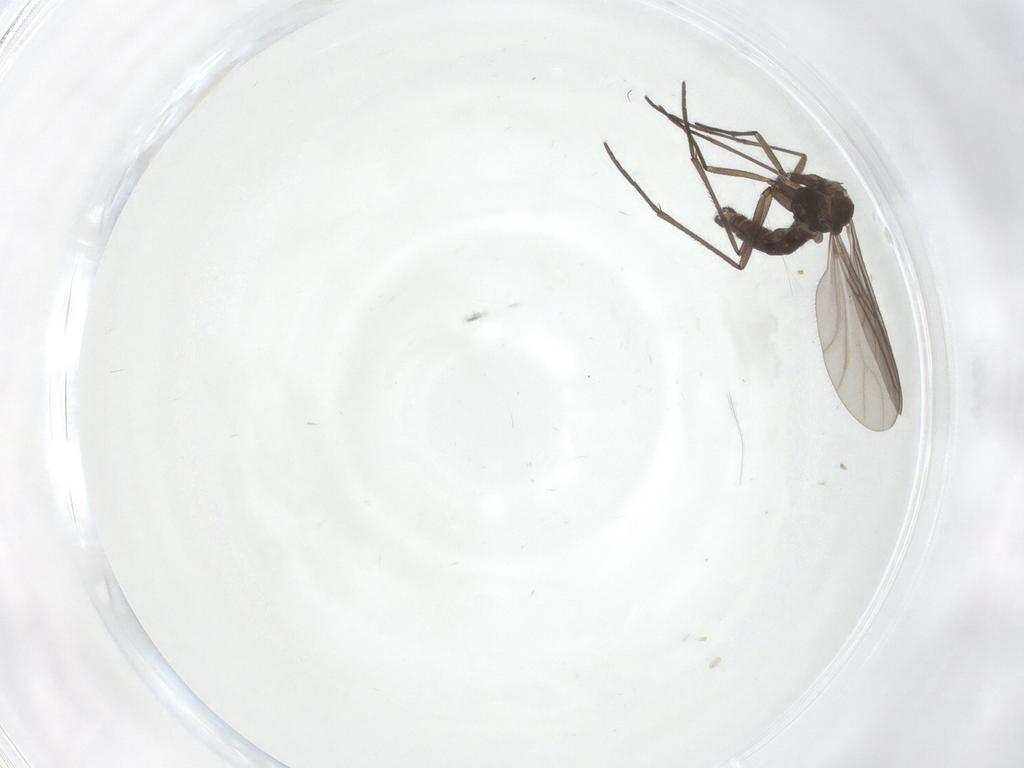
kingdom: Animalia
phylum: Arthropoda
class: Insecta
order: Diptera
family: Sciaridae
